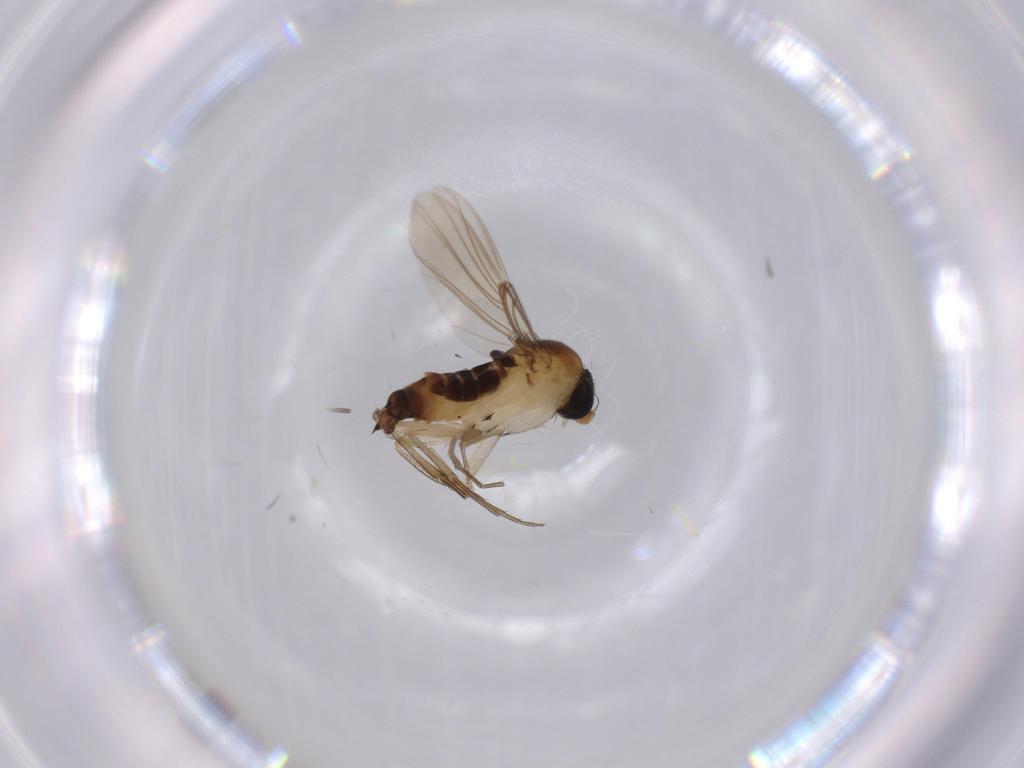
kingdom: Animalia
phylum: Arthropoda
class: Insecta
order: Diptera
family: Phoridae
